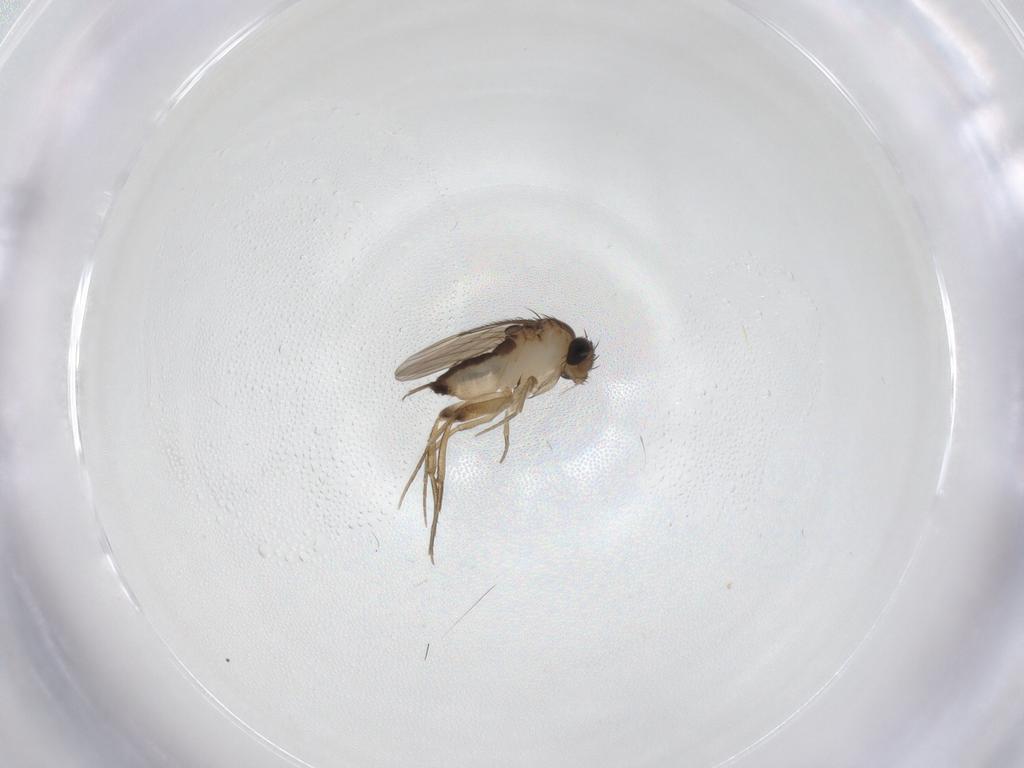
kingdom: Animalia
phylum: Arthropoda
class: Insecta
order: Diptera
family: Phoridae
